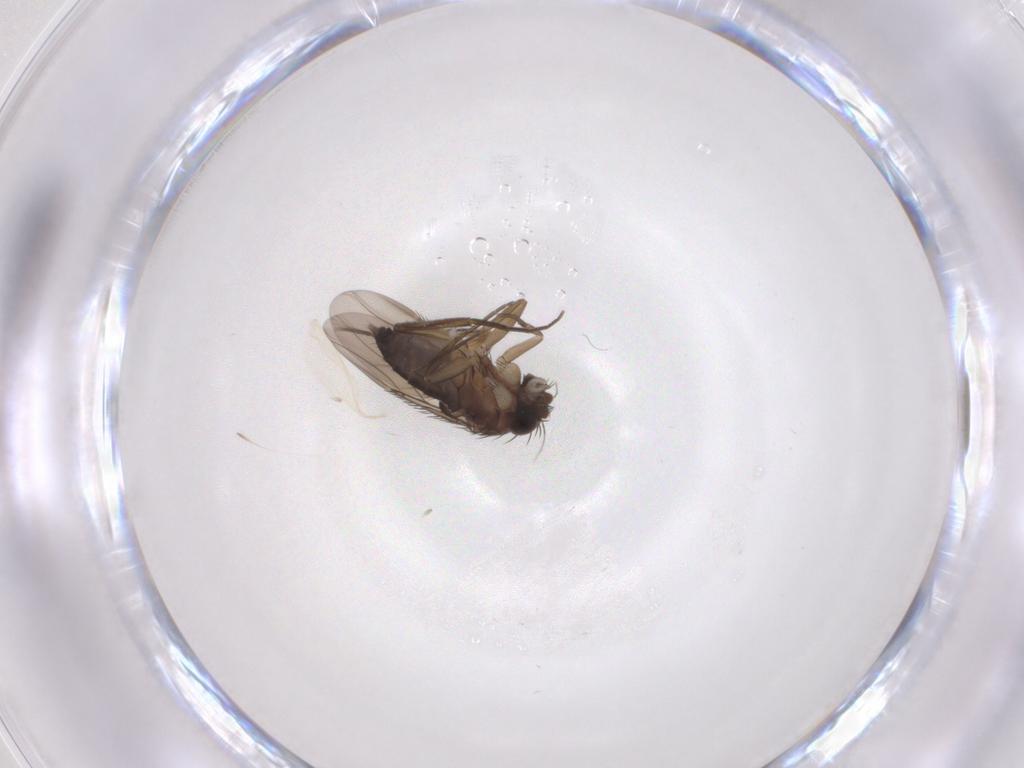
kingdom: Animalia
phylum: Arthropoda
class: Insecta
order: Diptera
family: Phoridae
